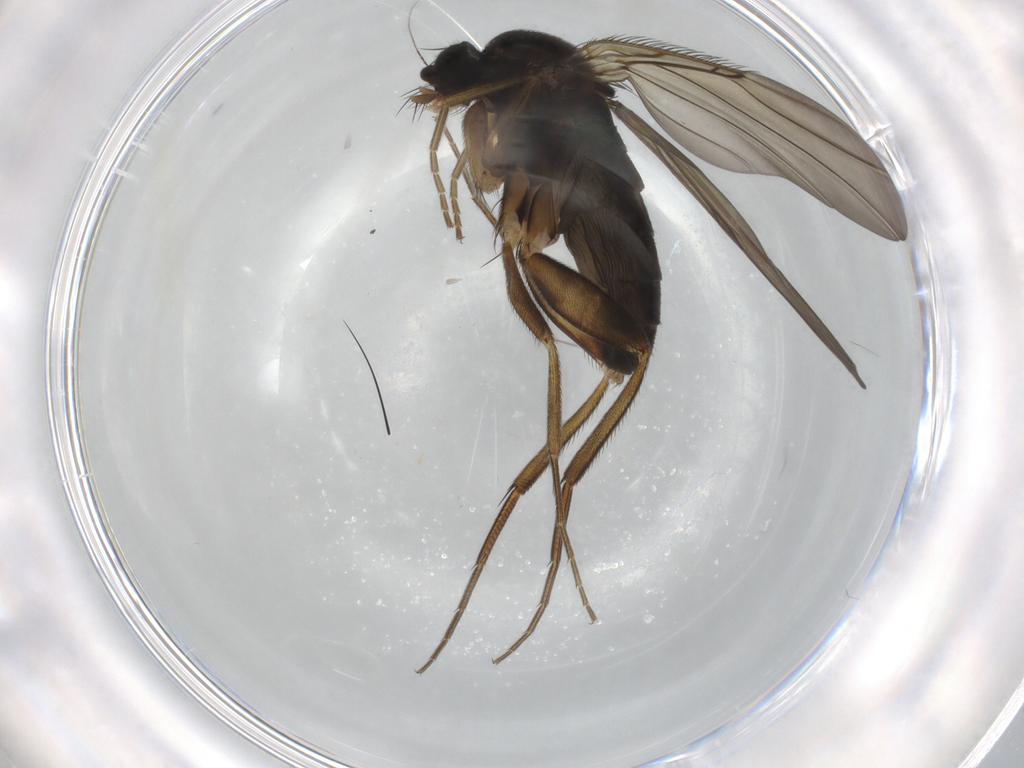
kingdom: Animalia
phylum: Arthropoda
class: Insecta
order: Diptera
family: Phoridae
